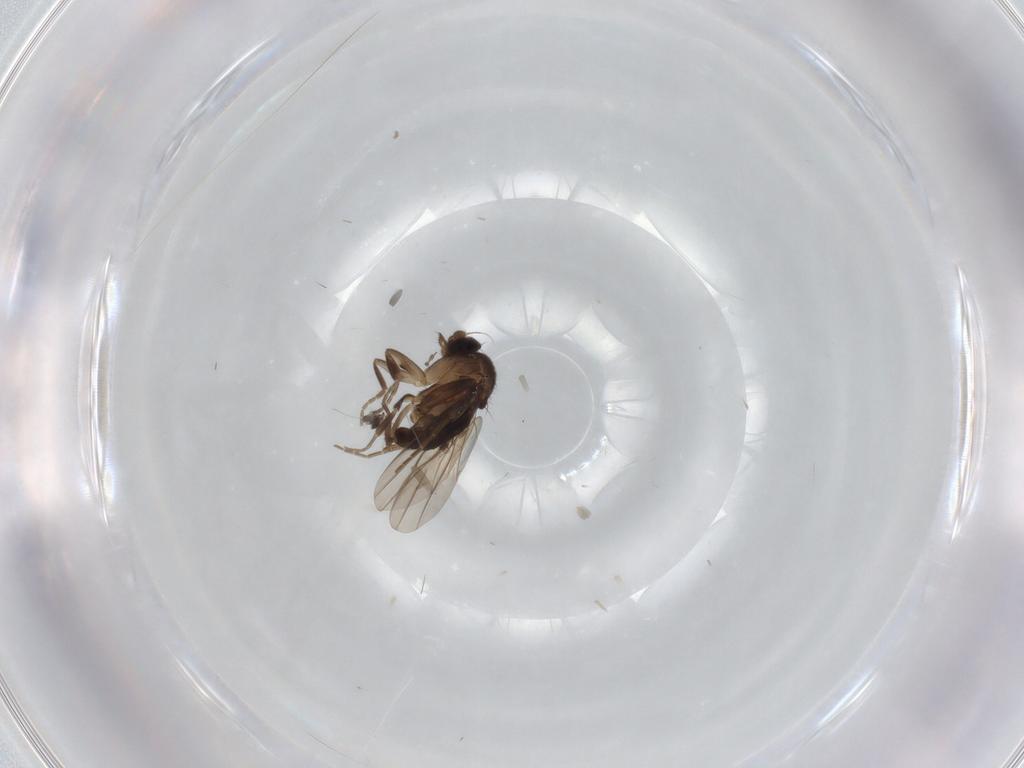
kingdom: Animalia
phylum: Arthropoda
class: Insecta
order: Diptera
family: Phoridae
